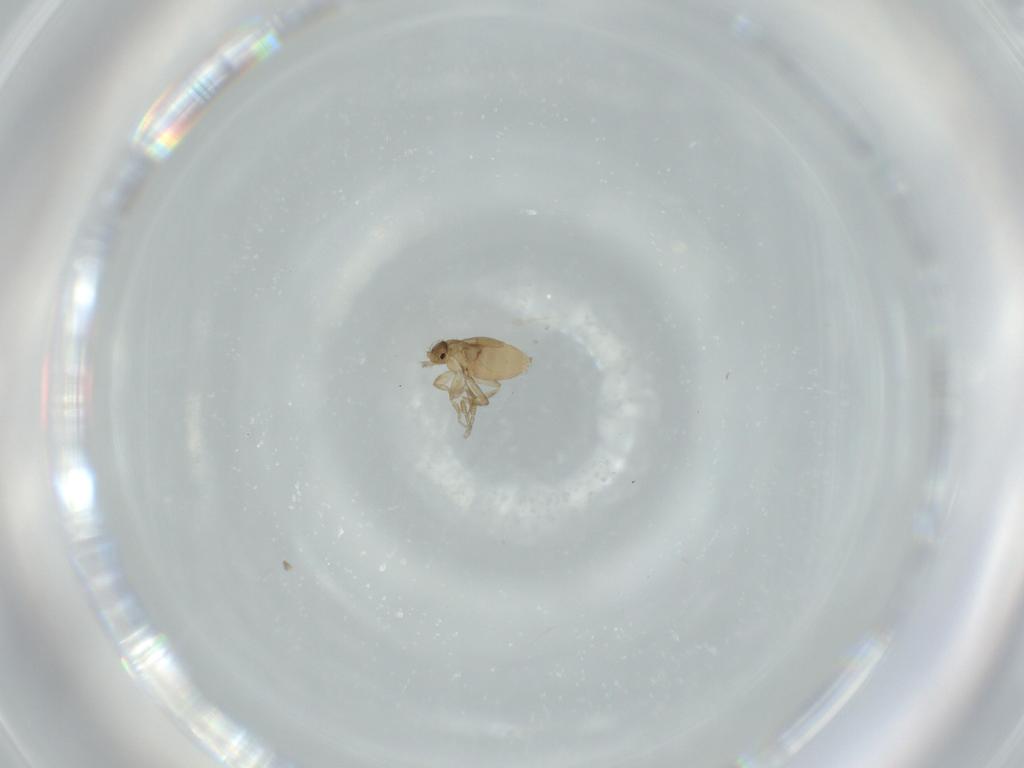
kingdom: Animalia
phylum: Arthropoda
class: Insecta
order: Diptera
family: Phoridae
